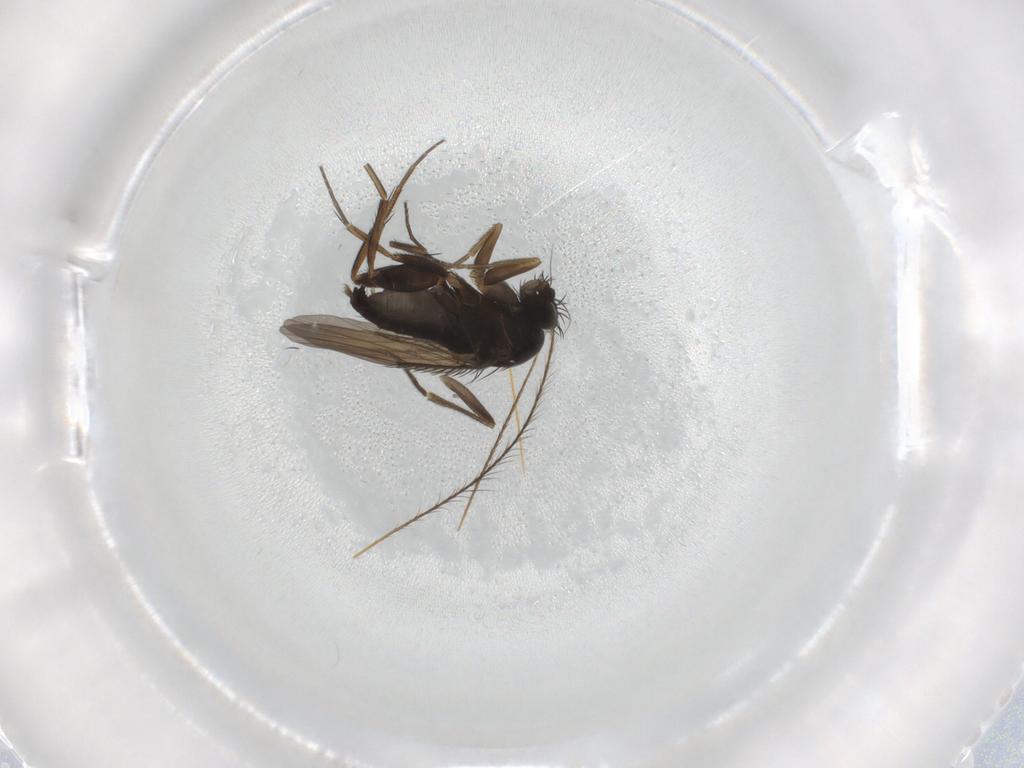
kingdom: Animalia
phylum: Arthropoda
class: Insecta
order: Diptera
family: Phoridae
